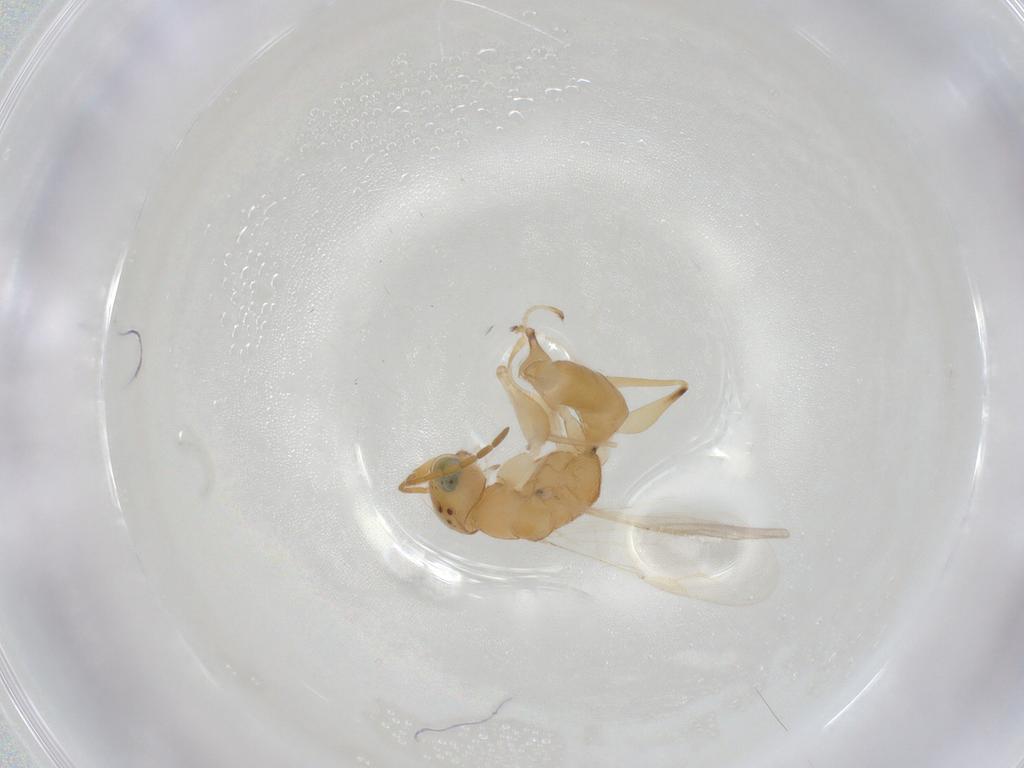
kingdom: Animalia
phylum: Arthropoda
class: Insecta
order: Hymenoptera
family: Dryinidae
